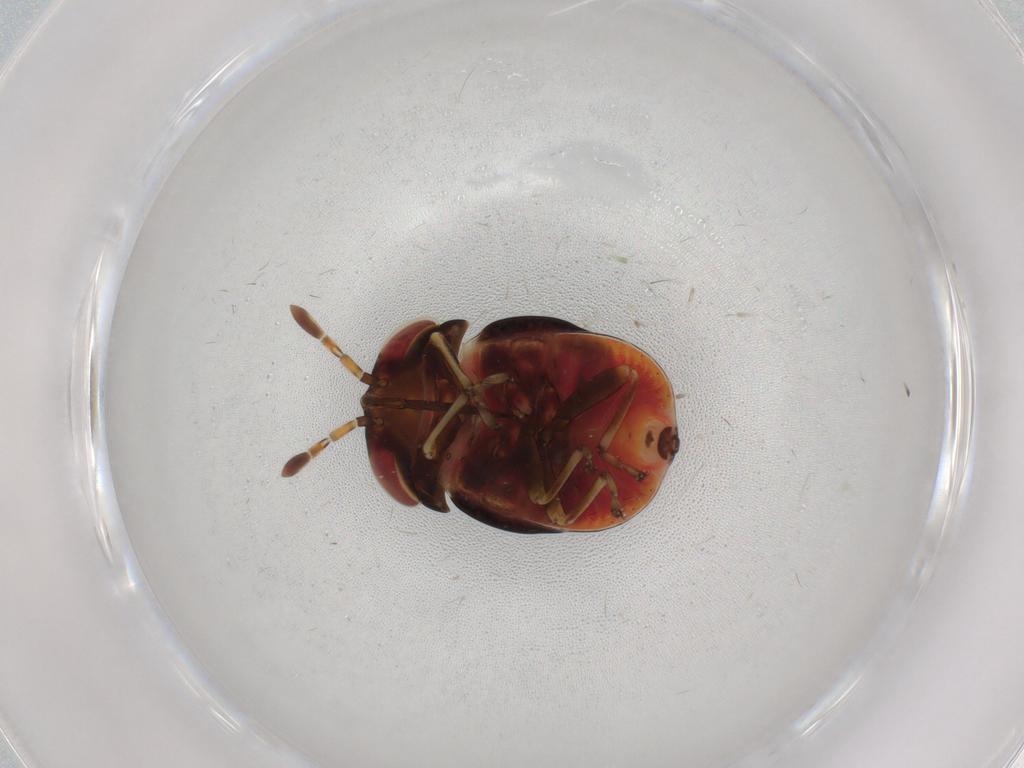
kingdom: Animalia
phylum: Arthropoda
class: Insecta
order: Hemiptera
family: Geocoridae
